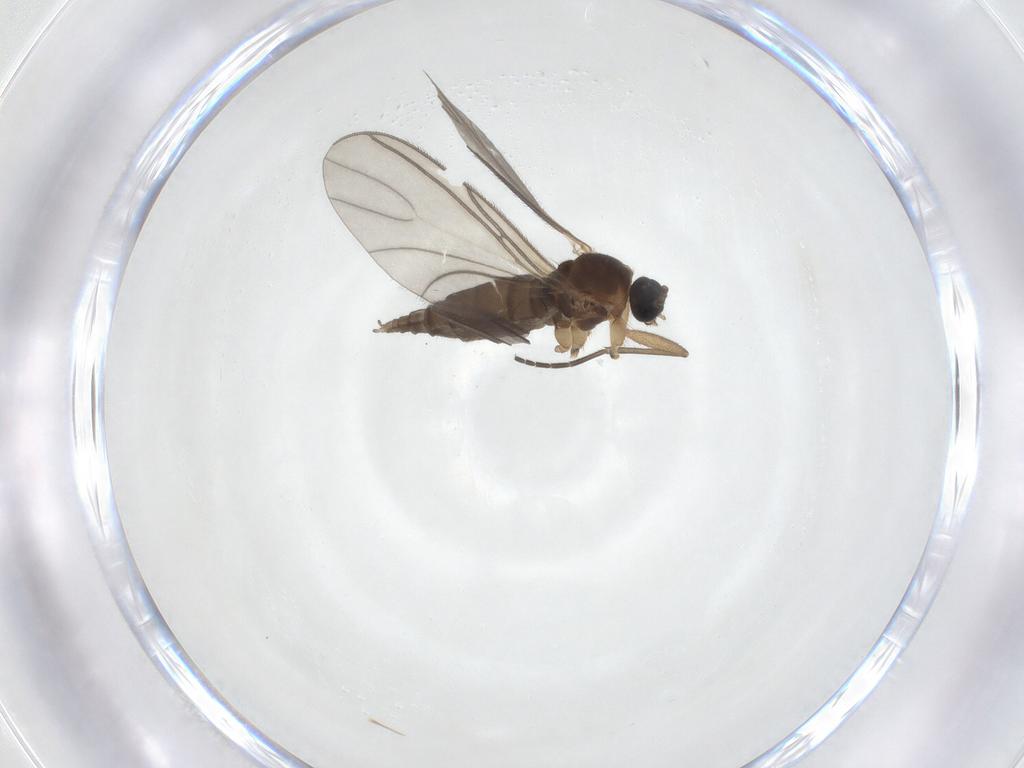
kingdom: Animalia
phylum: Arthropoda
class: Insecta
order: Diptera
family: Sciaridae
